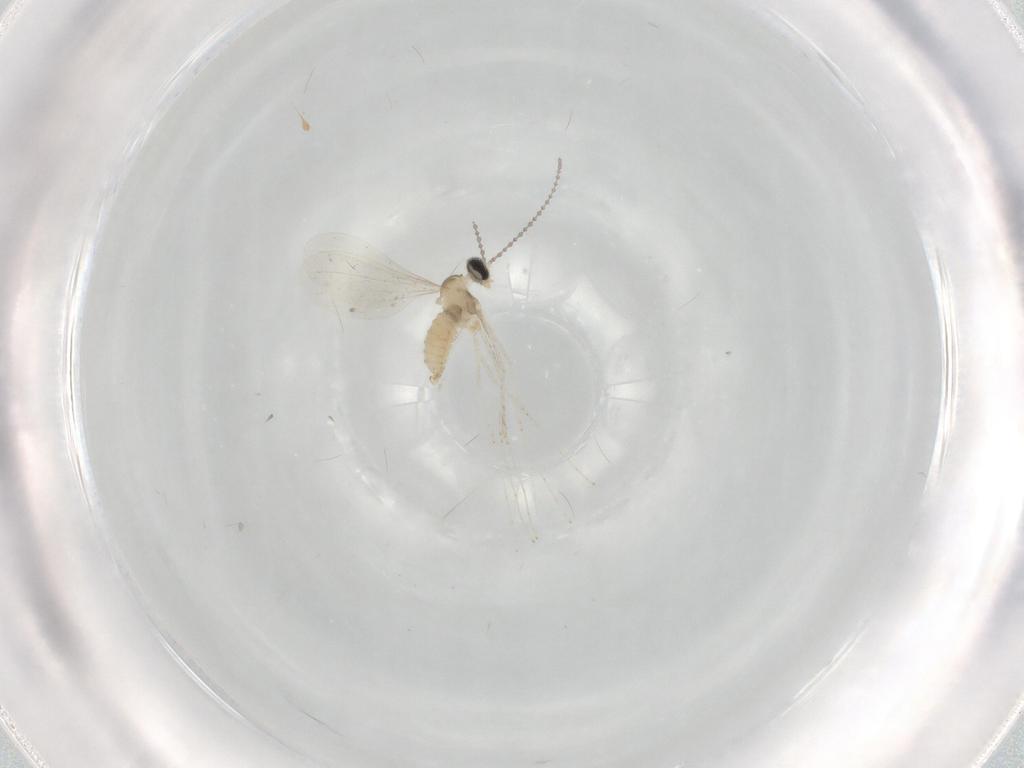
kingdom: Animalia
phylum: Arthropoda
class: Insecta
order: Diptera
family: Cecidomyiidae
